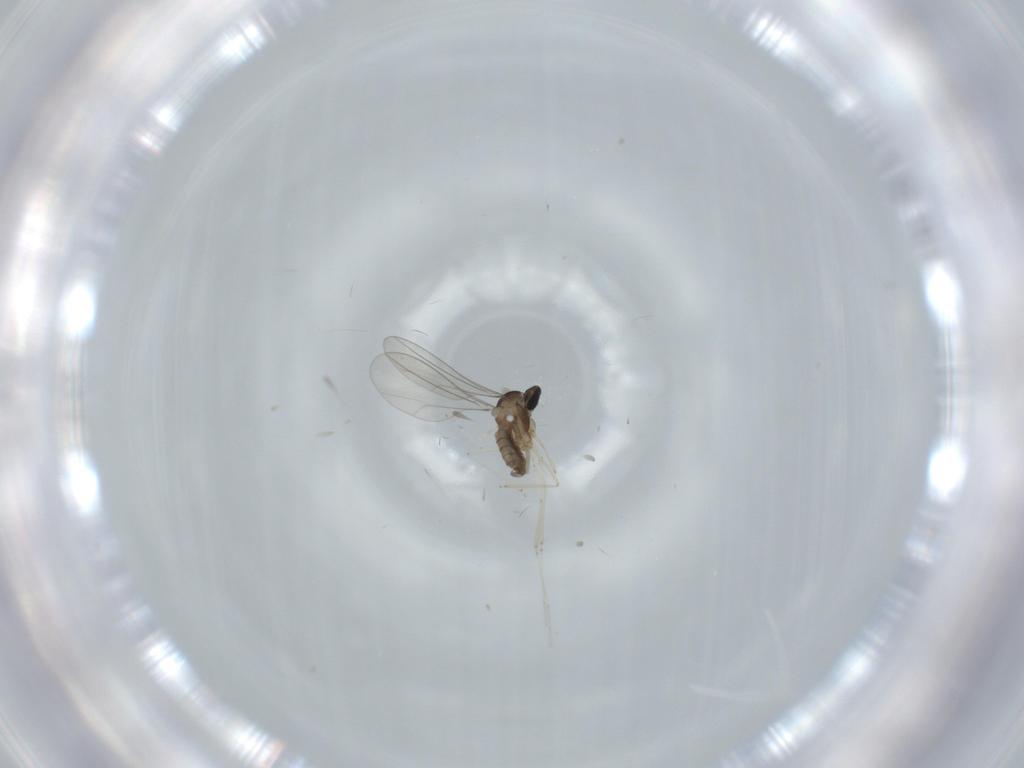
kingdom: Animalia
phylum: Arthropoda
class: Insecta
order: Diptera
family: Cecidomyiidae
